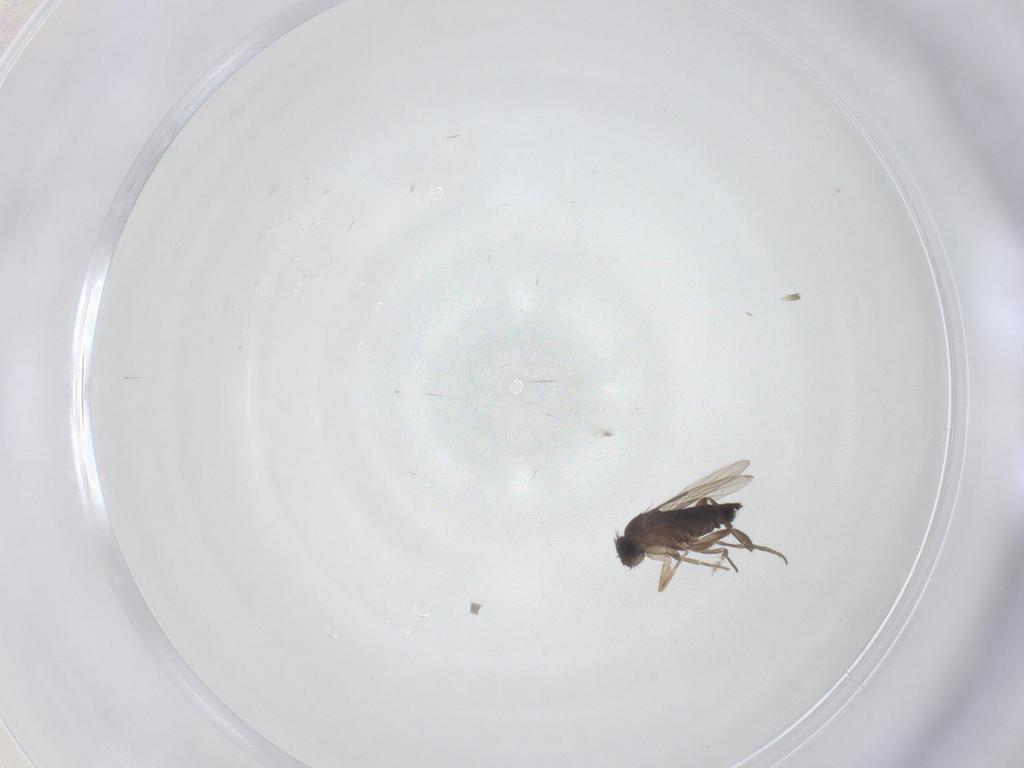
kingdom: Animalia
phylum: Arthropoda
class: Insecta
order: Diptera
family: Phoridae
